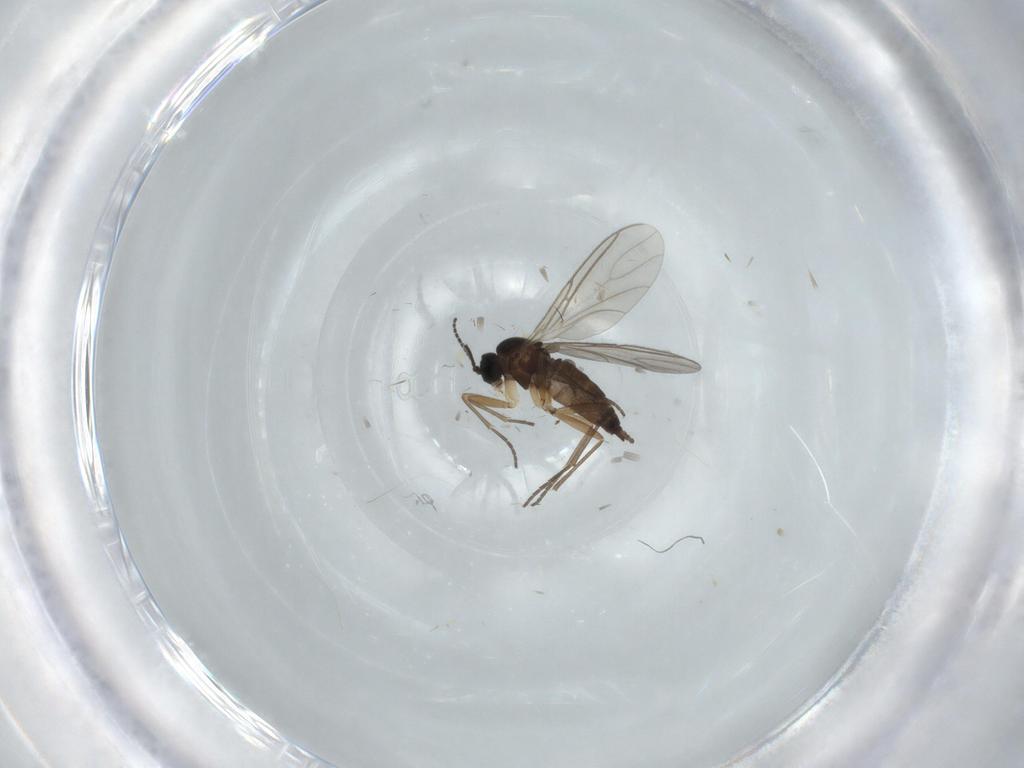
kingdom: Animalia
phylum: Arthropoda
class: Insecta
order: Diptera
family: Sciaridae
